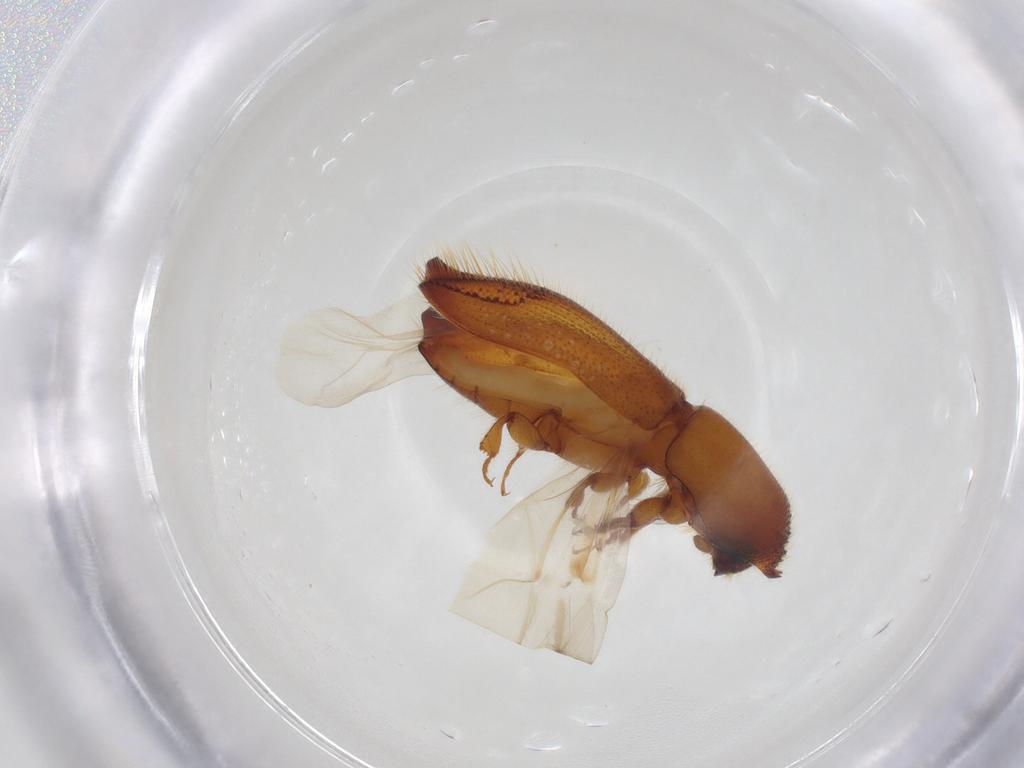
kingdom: Animalia
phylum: Arthropoda
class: Insecta
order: Coleoptera
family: Curculionidae
